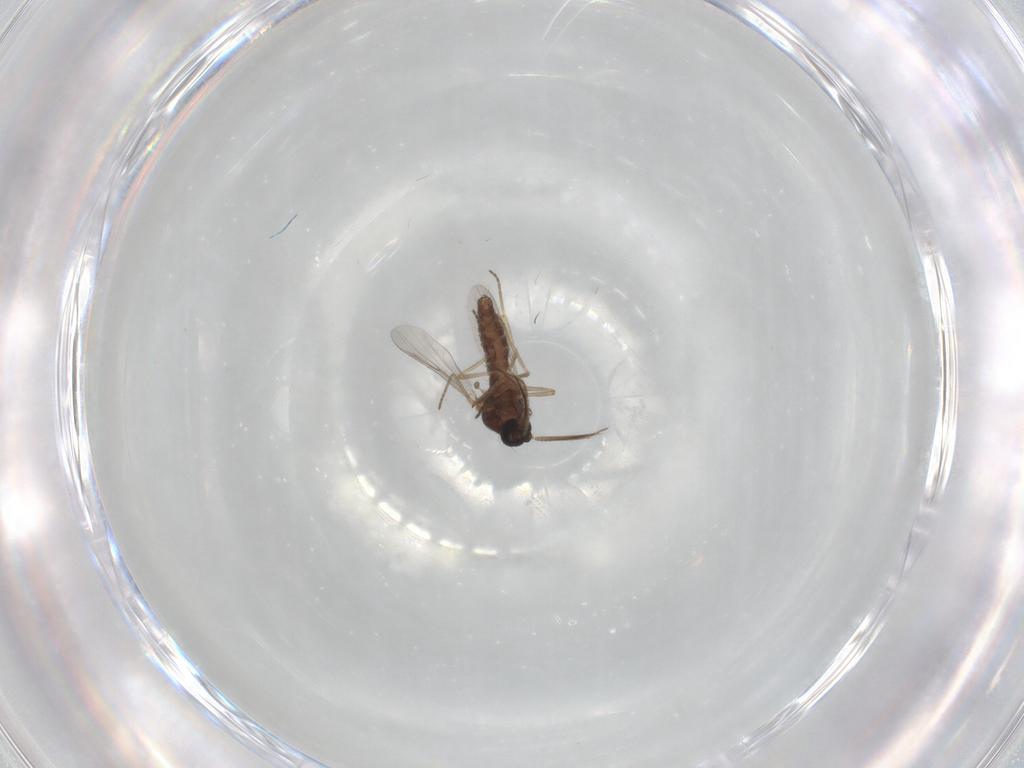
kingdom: Animalia
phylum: Arthropoda
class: Insecta
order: Diptera
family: Ceratopogonidae
